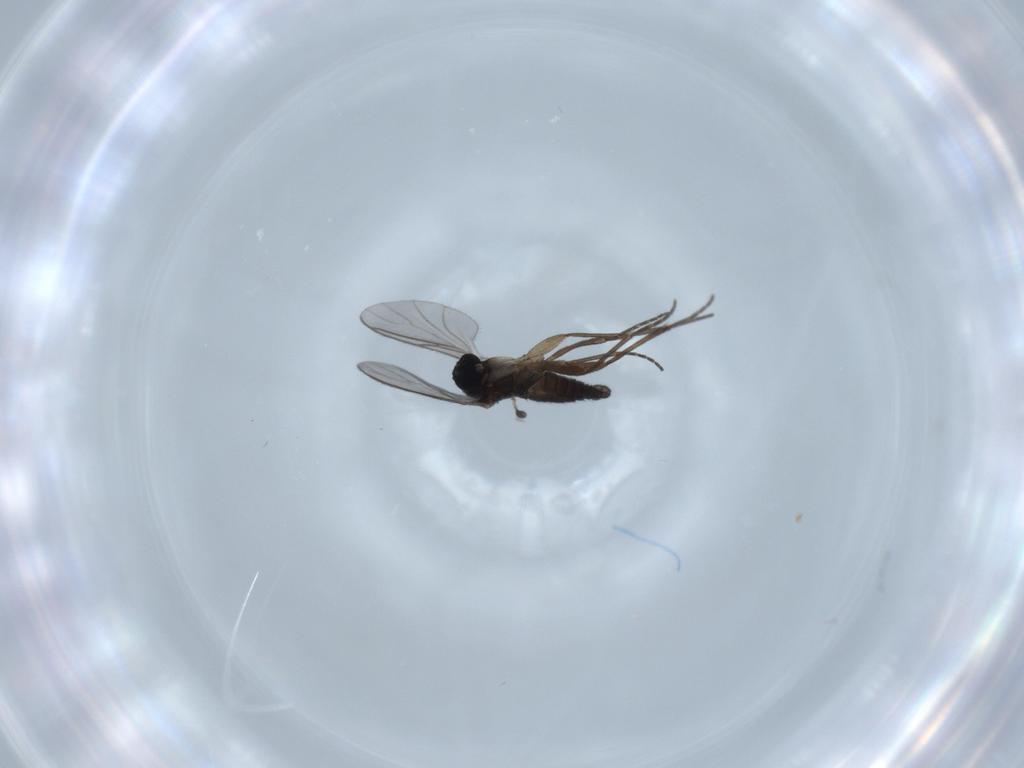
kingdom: Animalia
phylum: Arthropoda
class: Insecta
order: Diptera
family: Sciaridae
